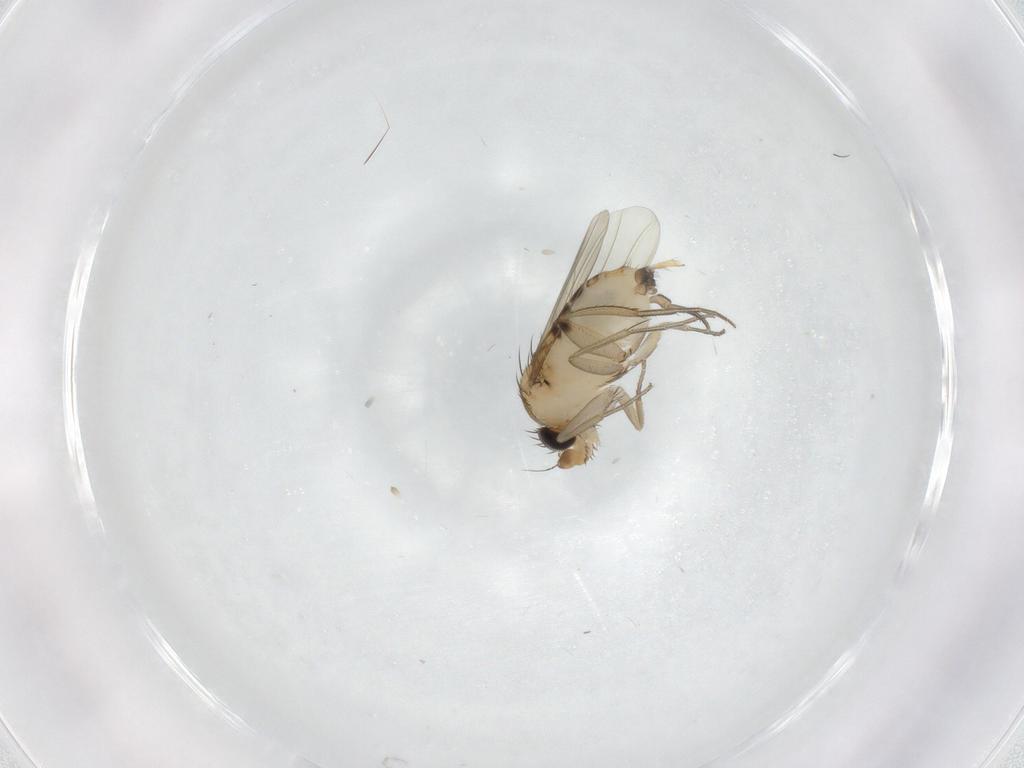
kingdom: Animalia
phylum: Arthropoda
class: Insecta
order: Diptera
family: Phoridae
